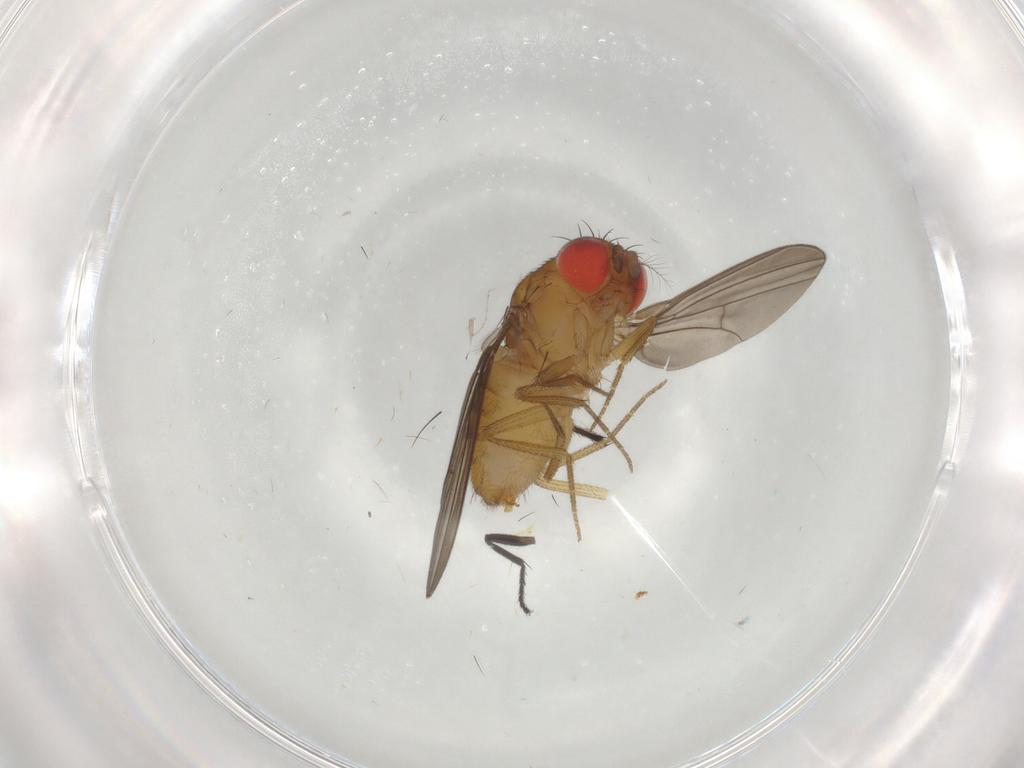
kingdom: Animalia
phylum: Arthropoda
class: Insecta
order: Diptera
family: Drosophilidae
